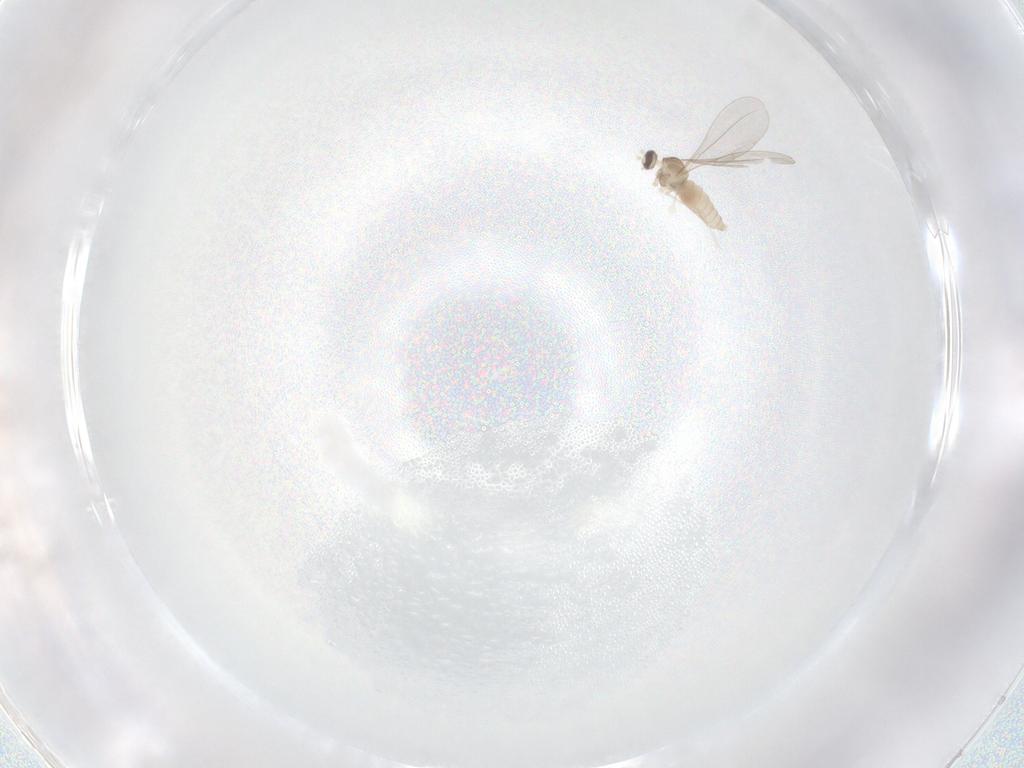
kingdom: Animalia
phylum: Arthropoda
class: Insecta
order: Diptera
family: Cecidomyiidae
